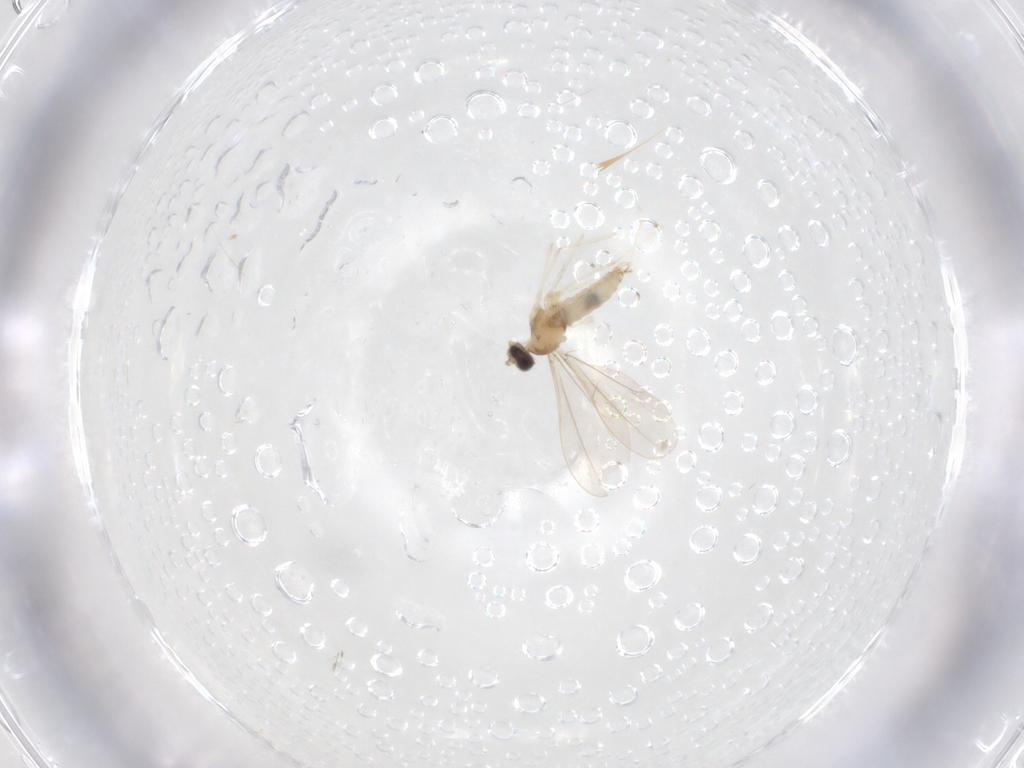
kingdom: Animalia
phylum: Arthropoda
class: Insecta
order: Diptera
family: Cecidomyiidae
